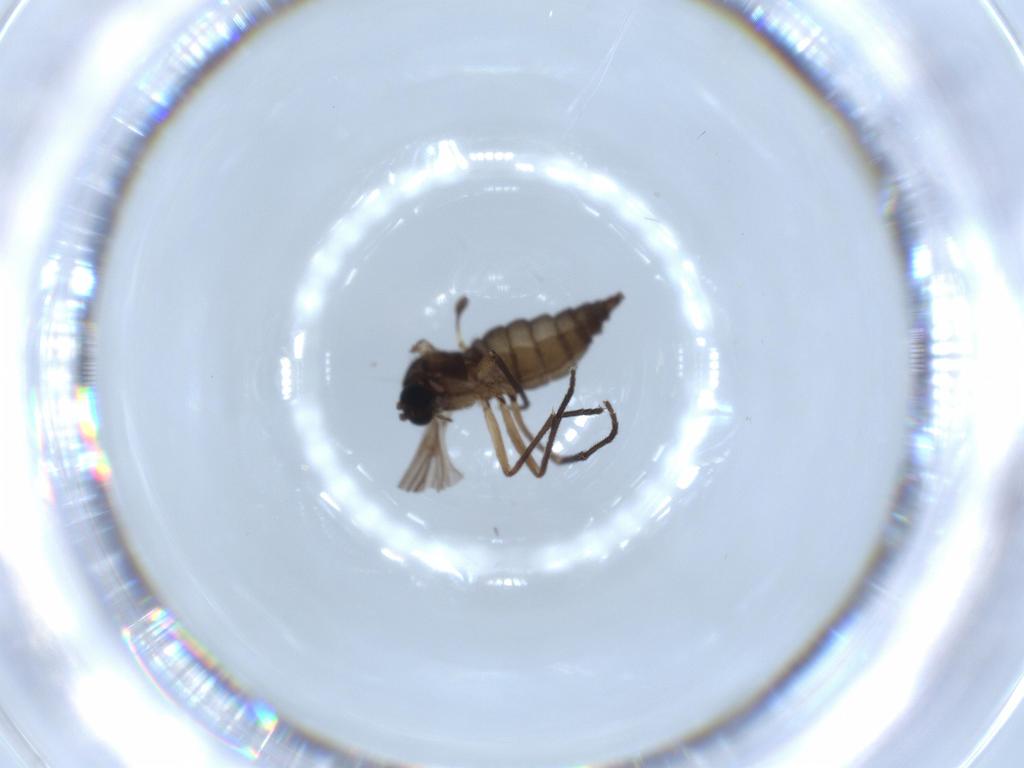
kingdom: Animalia
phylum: Arthropoda
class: Insecta
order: Diptera
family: Sciaridae
